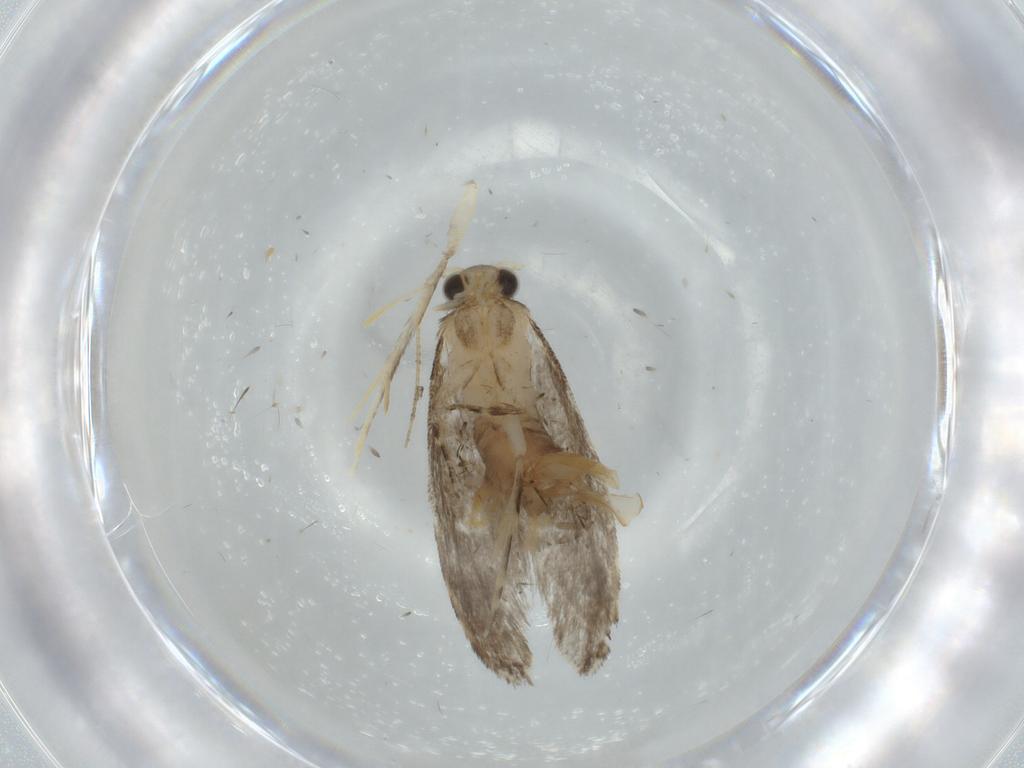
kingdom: Animalia
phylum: Arthropoda
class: Insecta
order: Lepidoptera
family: Tineidae
